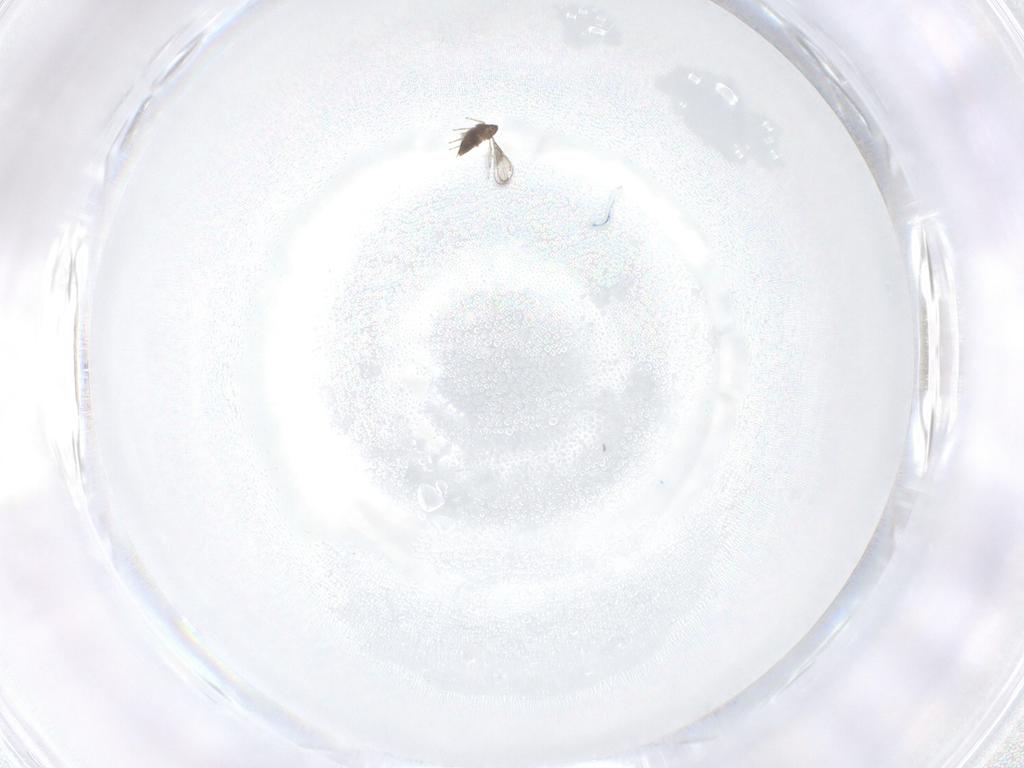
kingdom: Animalia
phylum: Arthropoda
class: Insecta
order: Hymenoptera
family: Trichogrammatidae
